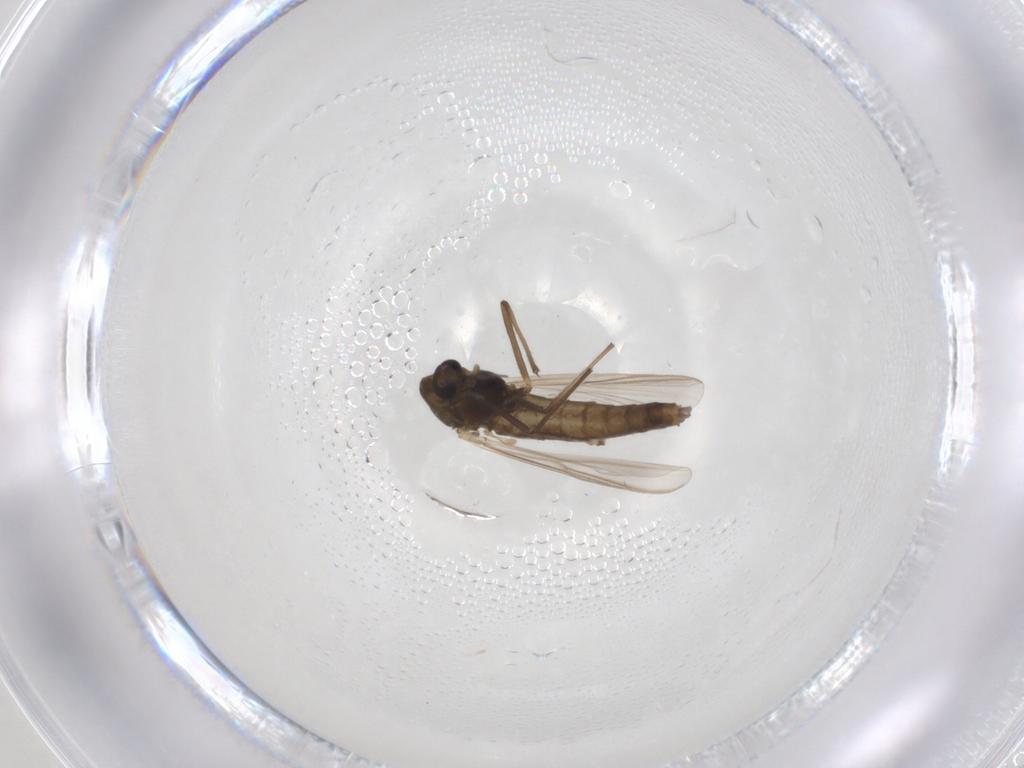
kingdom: Animalia
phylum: Arthropoda
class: Insecta
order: Diptera
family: Chironomidae
